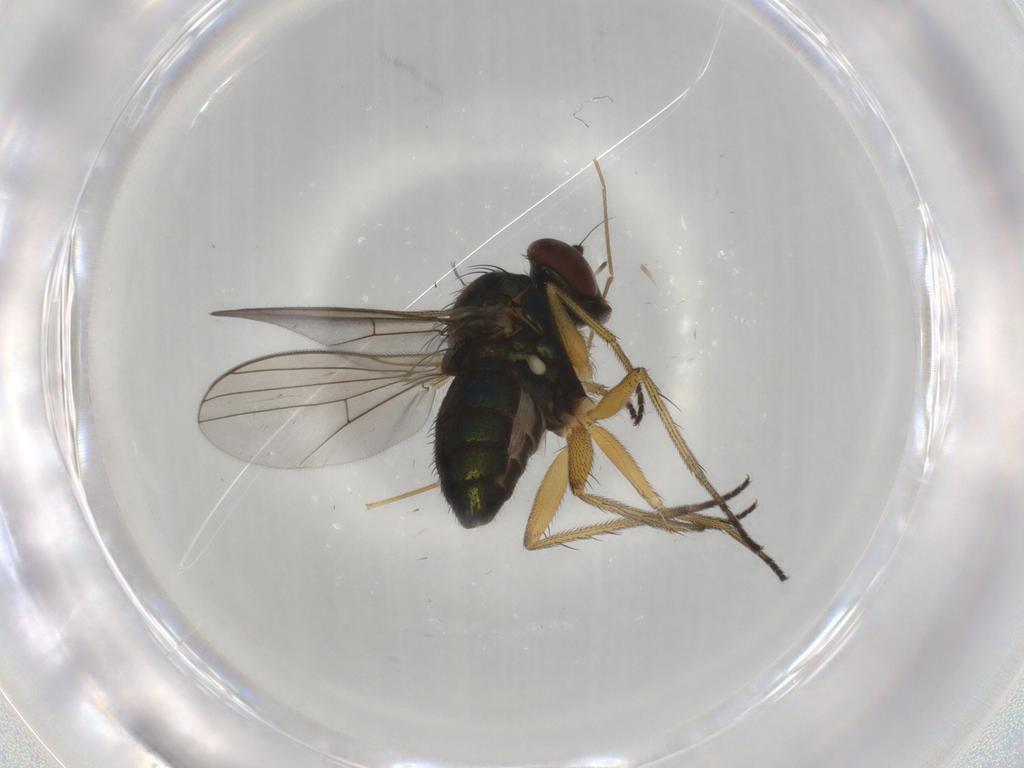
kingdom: Animalia
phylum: Arthropoda
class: Insecta
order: Diptera
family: Dolichopodidae
